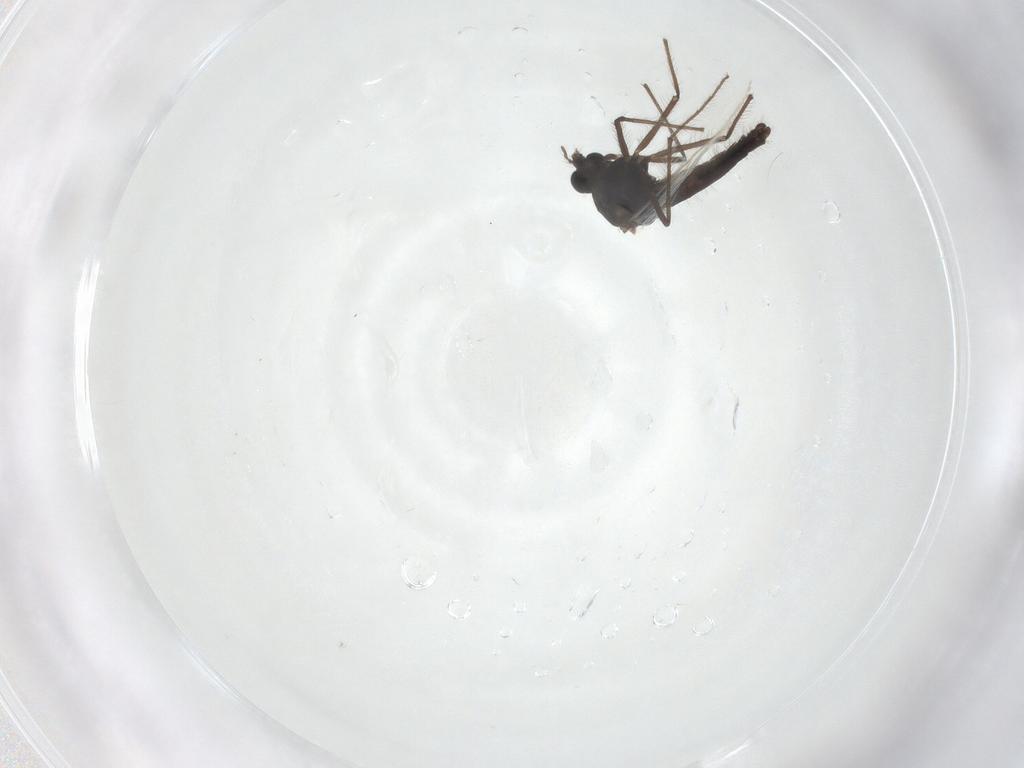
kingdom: Animalia
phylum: Arthropoda
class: Insecta
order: Diptera
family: Chironomidae
